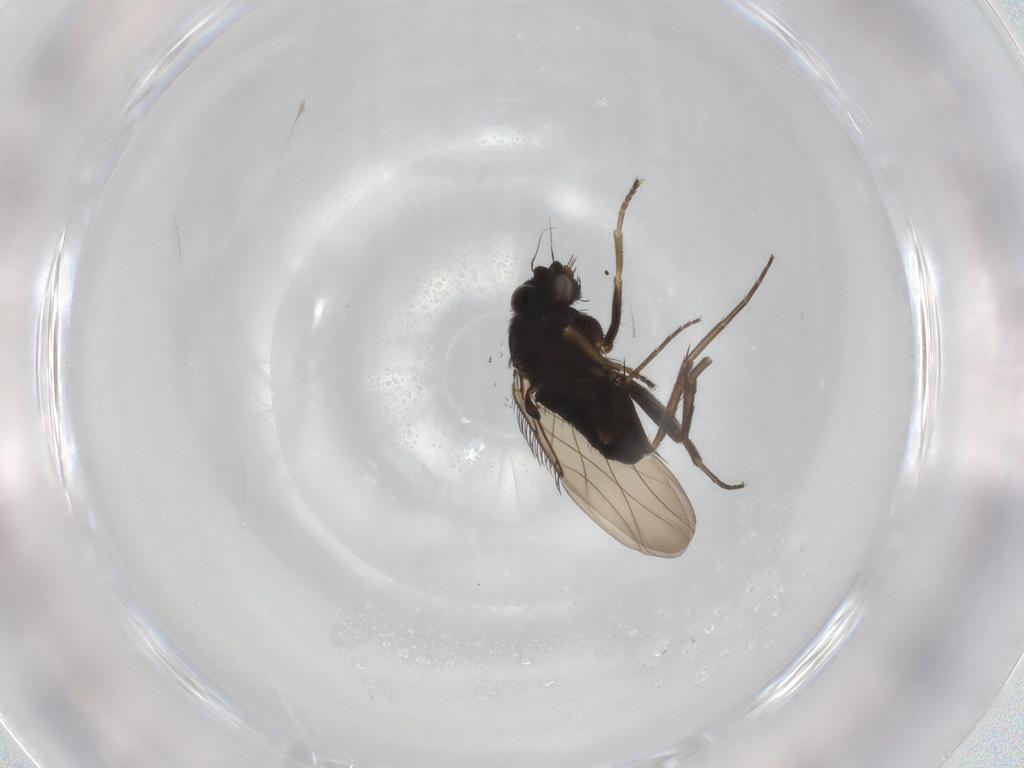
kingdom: Animalia
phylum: Arthropoda
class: Insecta
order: Diptera
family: Phoridae
